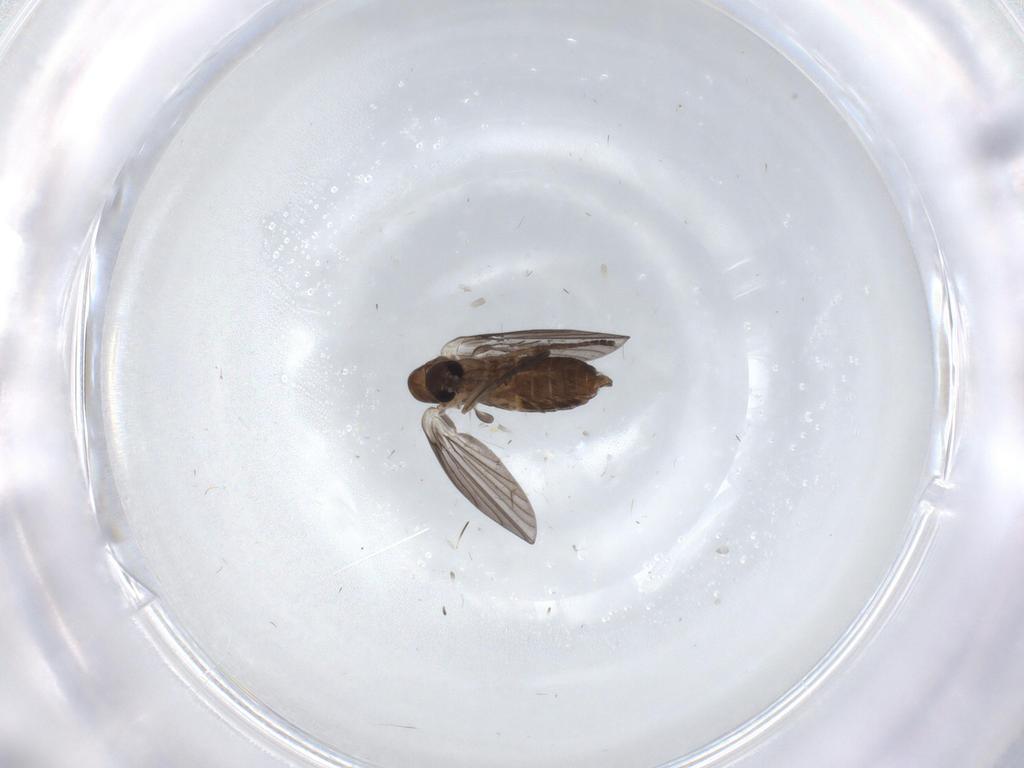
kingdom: Animalia
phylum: Arthropoda
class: Insecta
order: Diptera
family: Psychodidae
